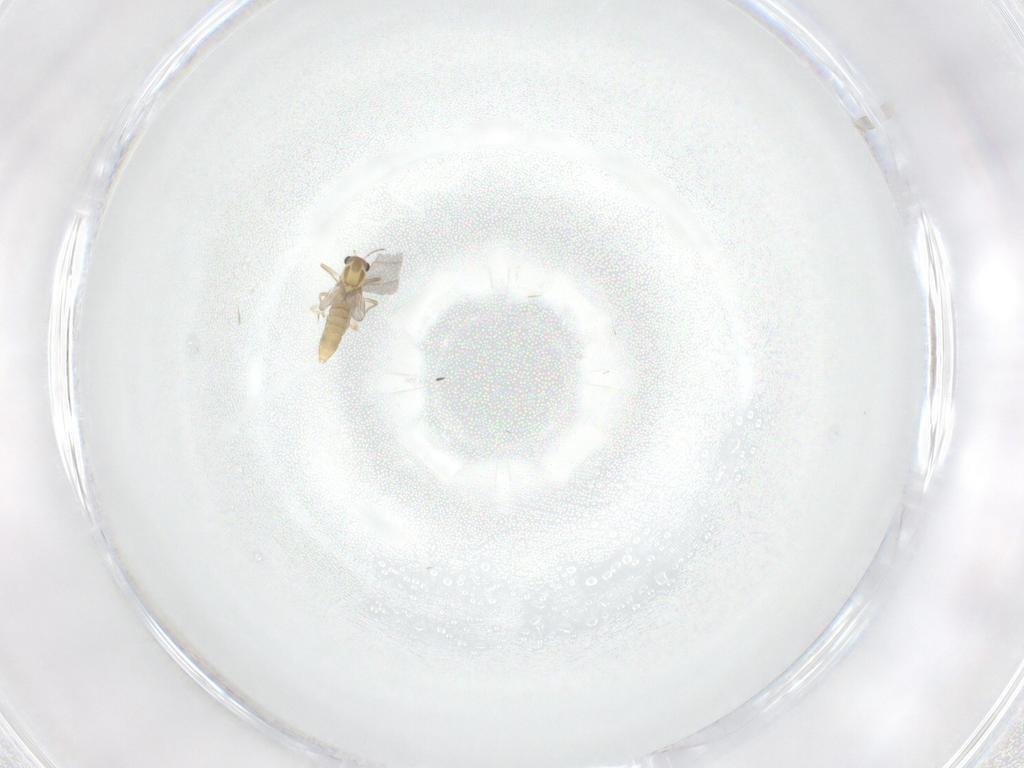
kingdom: Animalia
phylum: Arthropoda
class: Insecta
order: Diptera
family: Chironomidae
